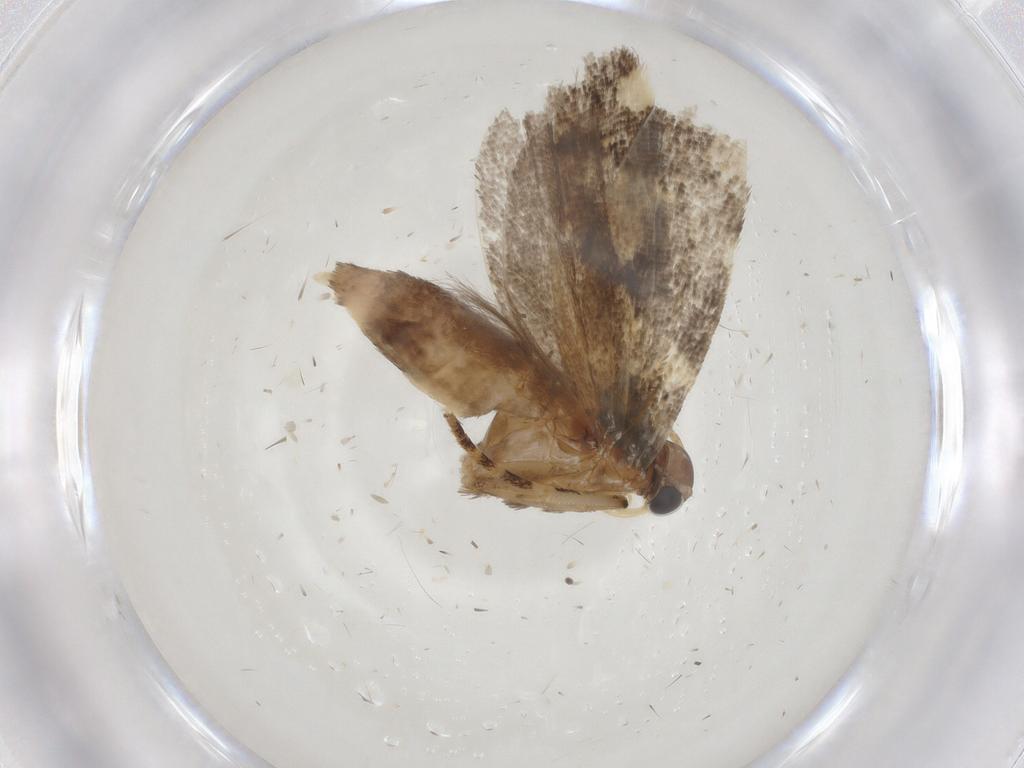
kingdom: Animalia
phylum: Arthropoda
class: Insecta
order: Lepidoptera
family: Gelechiidae
